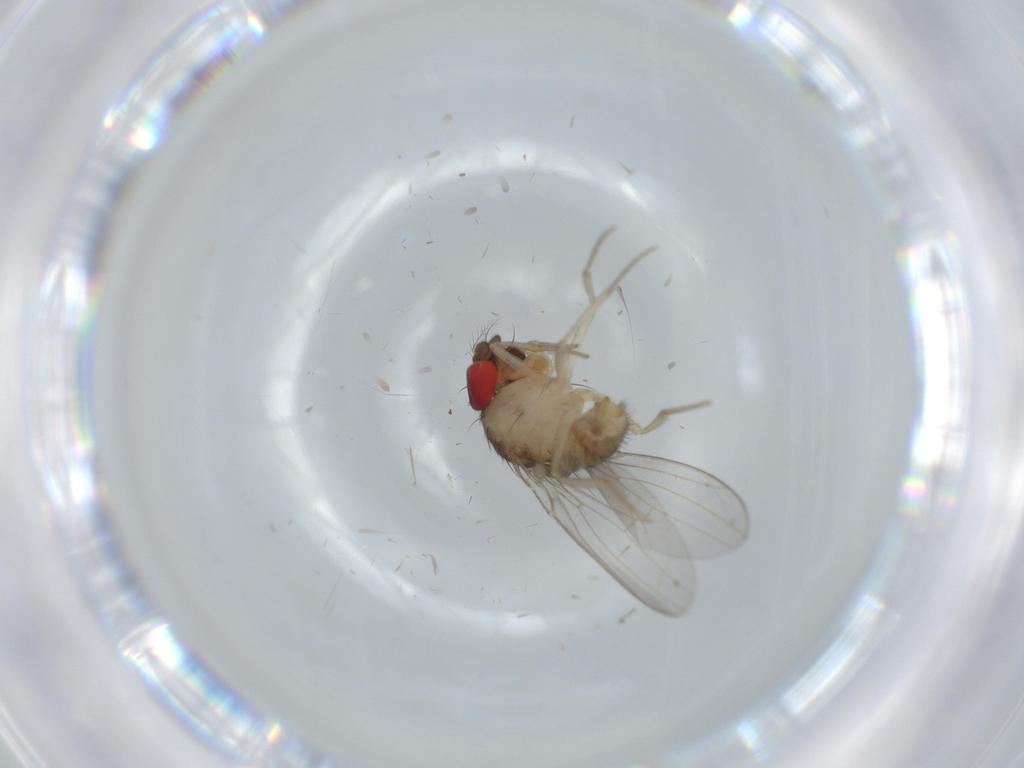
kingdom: Animalia
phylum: Arthropoda
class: Insecta
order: Diptera
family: Drosophilidae
